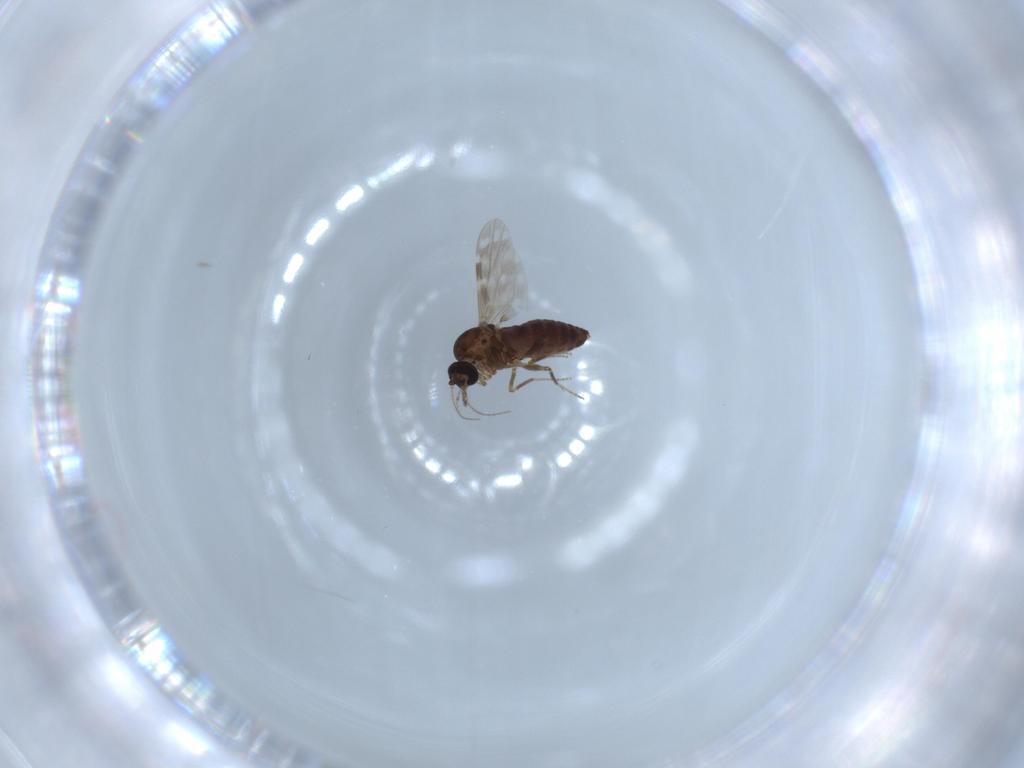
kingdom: Animalia
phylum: Arthropoda
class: Insecta
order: Diptera
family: Ceratopogonidae
